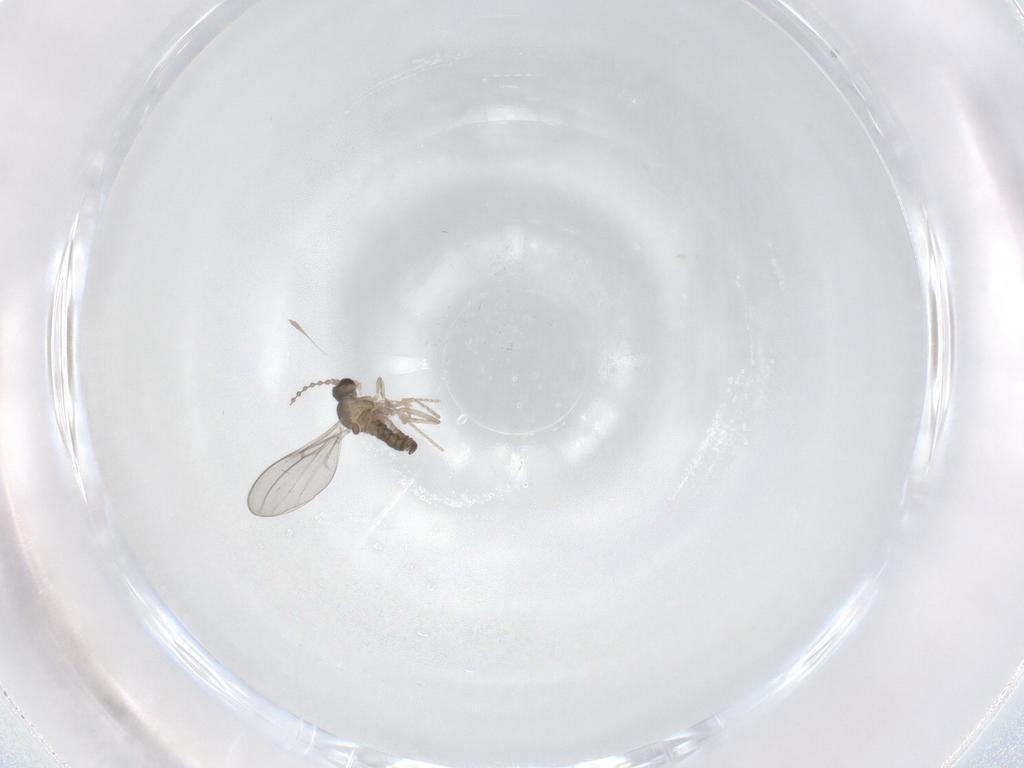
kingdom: Animalia
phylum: Arthropoda
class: Insecta
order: Diptera
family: Cecidomyiidae
